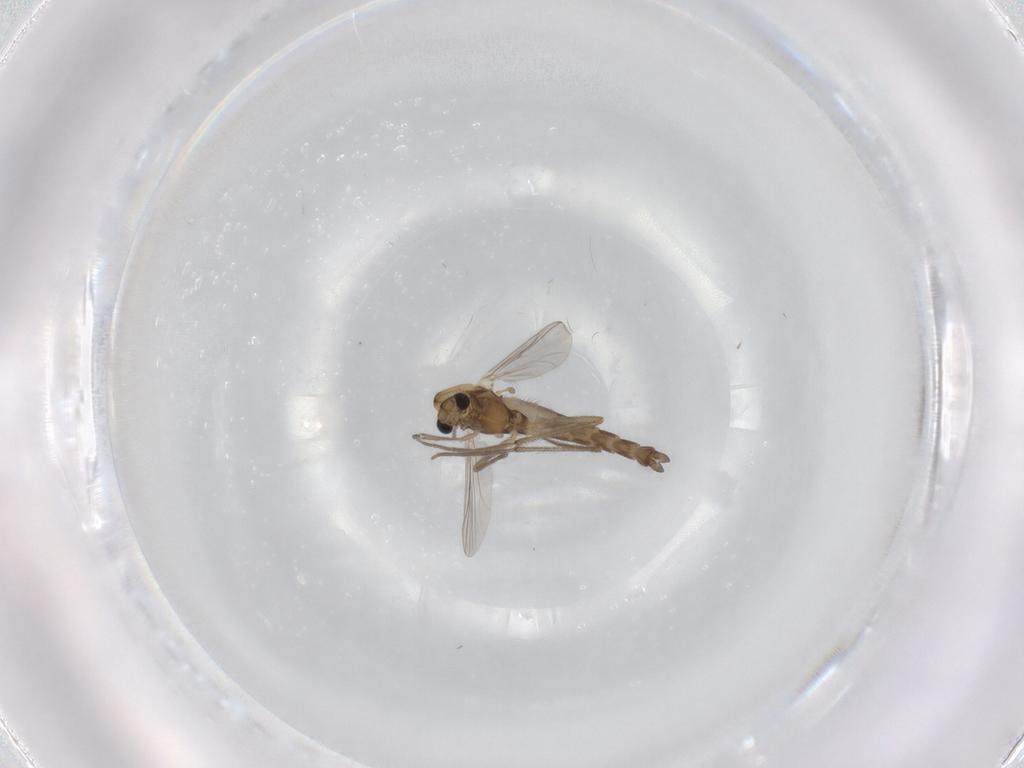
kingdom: Animalia
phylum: Arthropoda
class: Insecta
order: Diptera
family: Chironomidae
